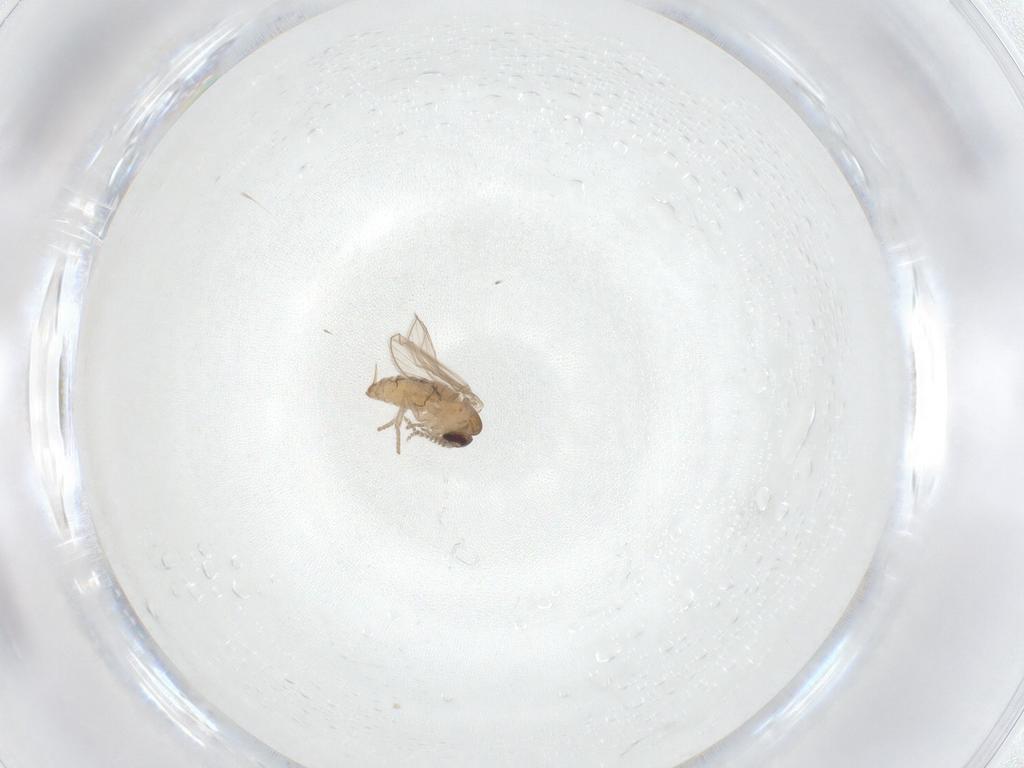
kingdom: Animalia
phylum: Arthropoda
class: Insecta
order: Diptera
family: Psychodidae
